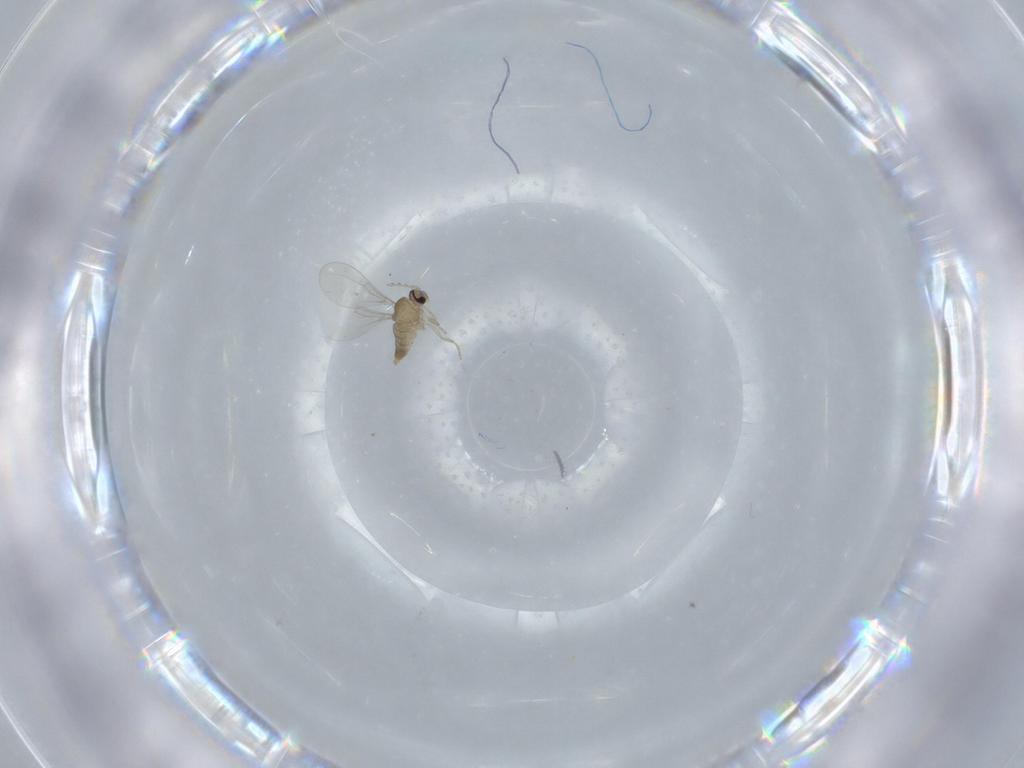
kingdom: Animalia
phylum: Arthropoda
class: Insecta
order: Diptera
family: Cecidomyiidae
